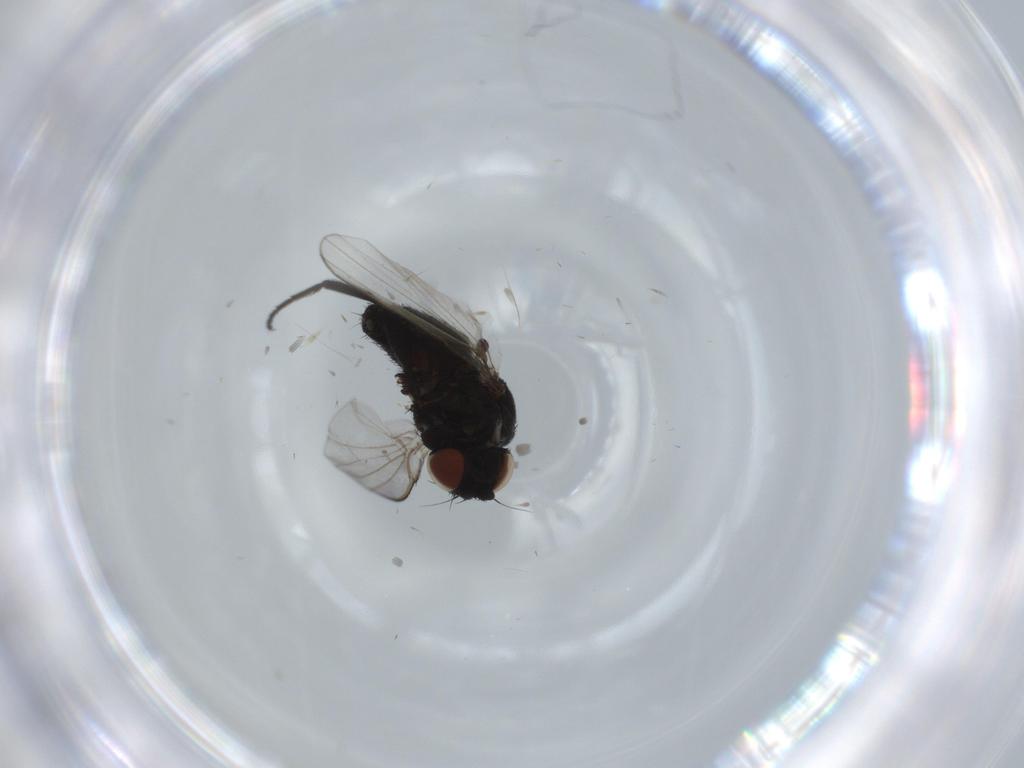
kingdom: Animalia
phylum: Arthropoda
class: Insecta
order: Diptera
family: Milichiidae
